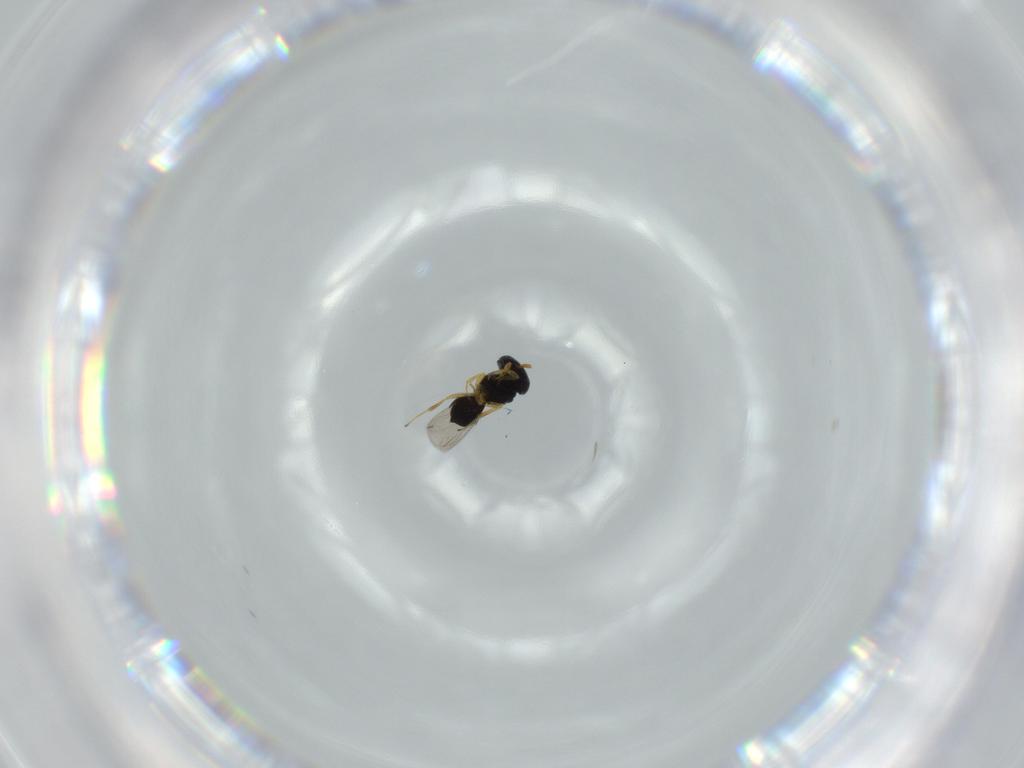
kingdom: Animalia
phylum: Arthropoda
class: Insecta
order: Hymenoptera
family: Scelionidae
